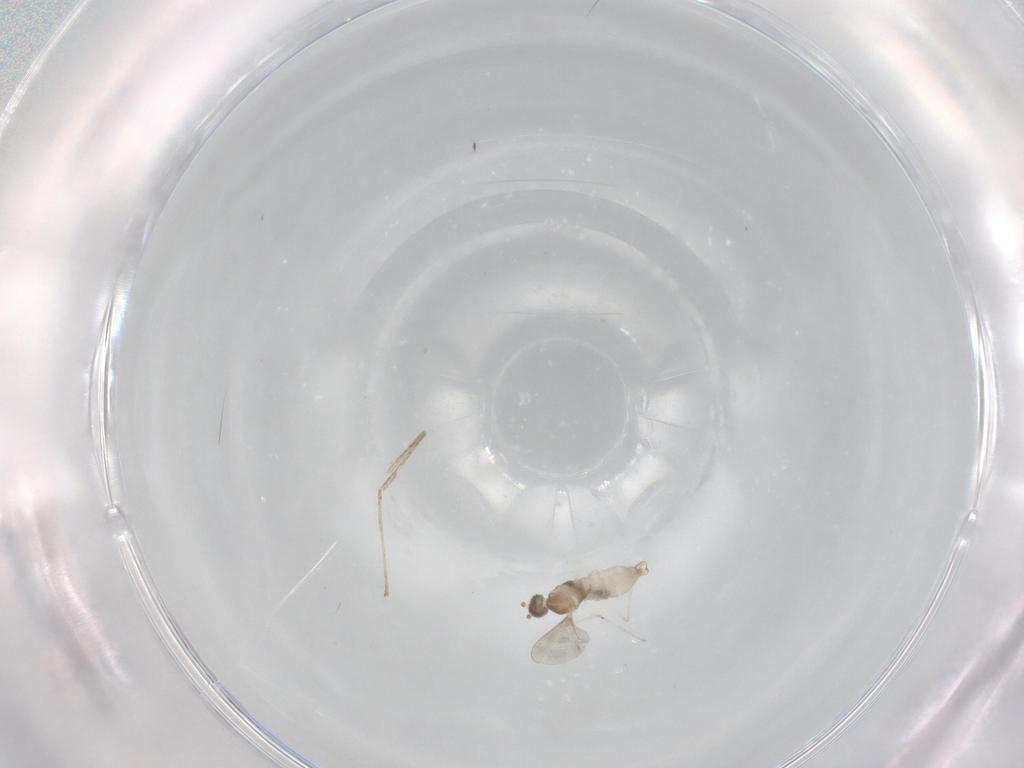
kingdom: Animalia
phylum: Arthropoda
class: Insecta
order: Diptera
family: Cecidomyiidae
